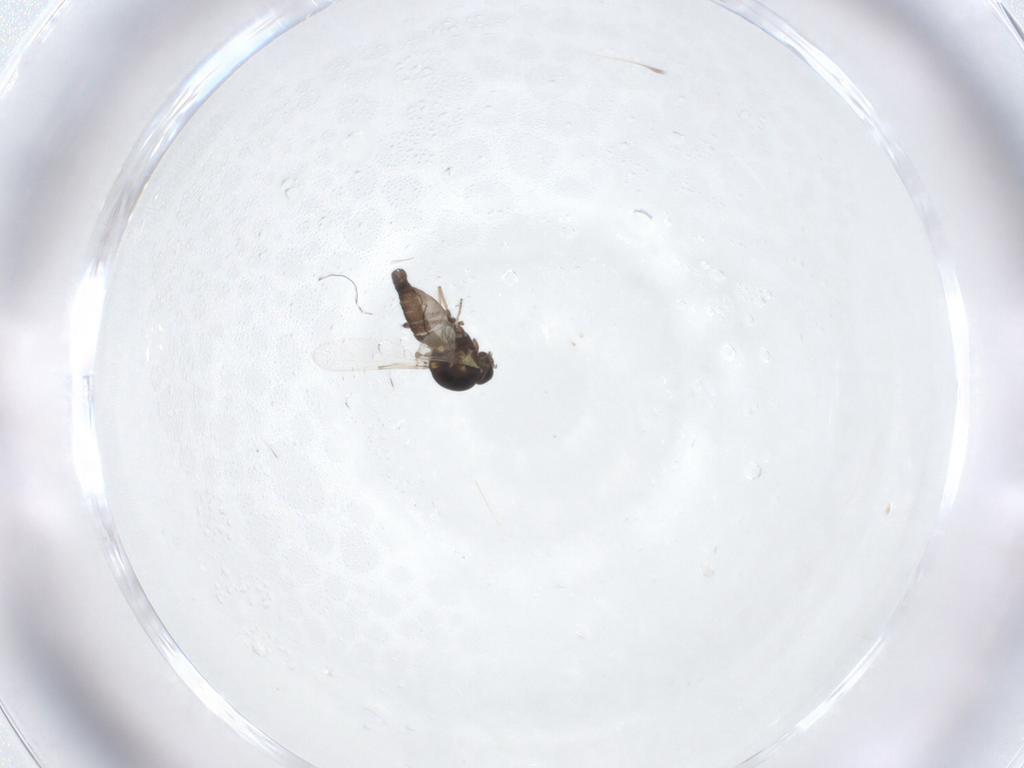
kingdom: Animalia
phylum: Arthropoda
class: Insecta
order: Diptera
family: Ceratopogonidae
